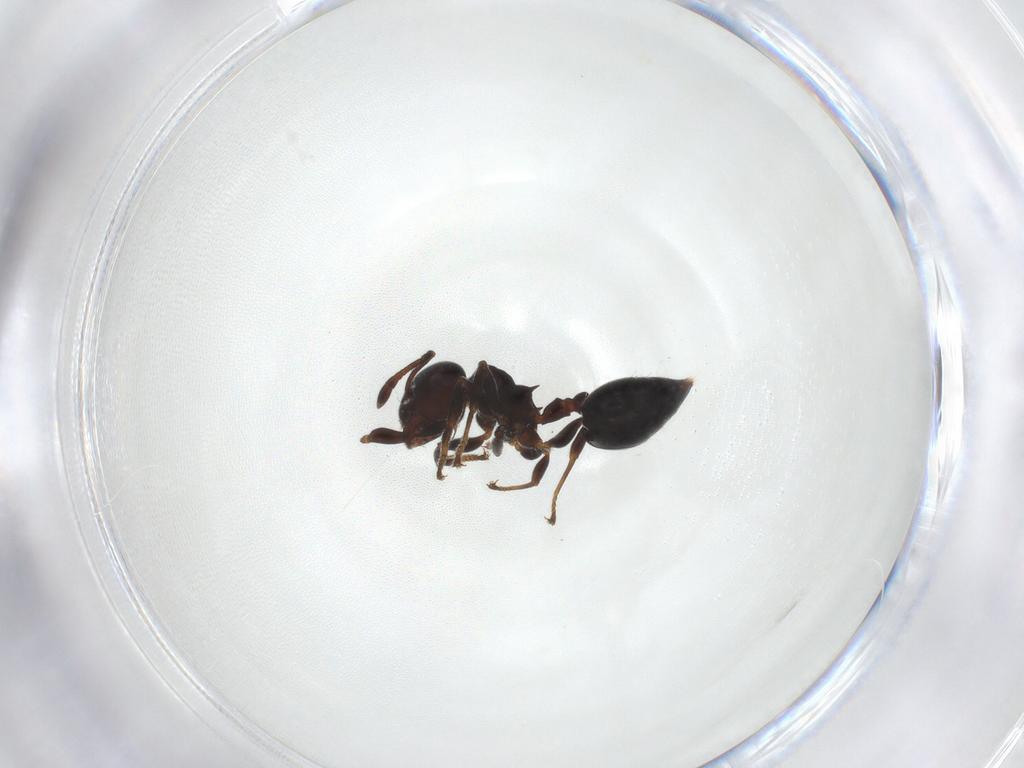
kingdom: Animalia
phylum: Arthropoda
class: Insecta
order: Hymenoptera
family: Formicidae
